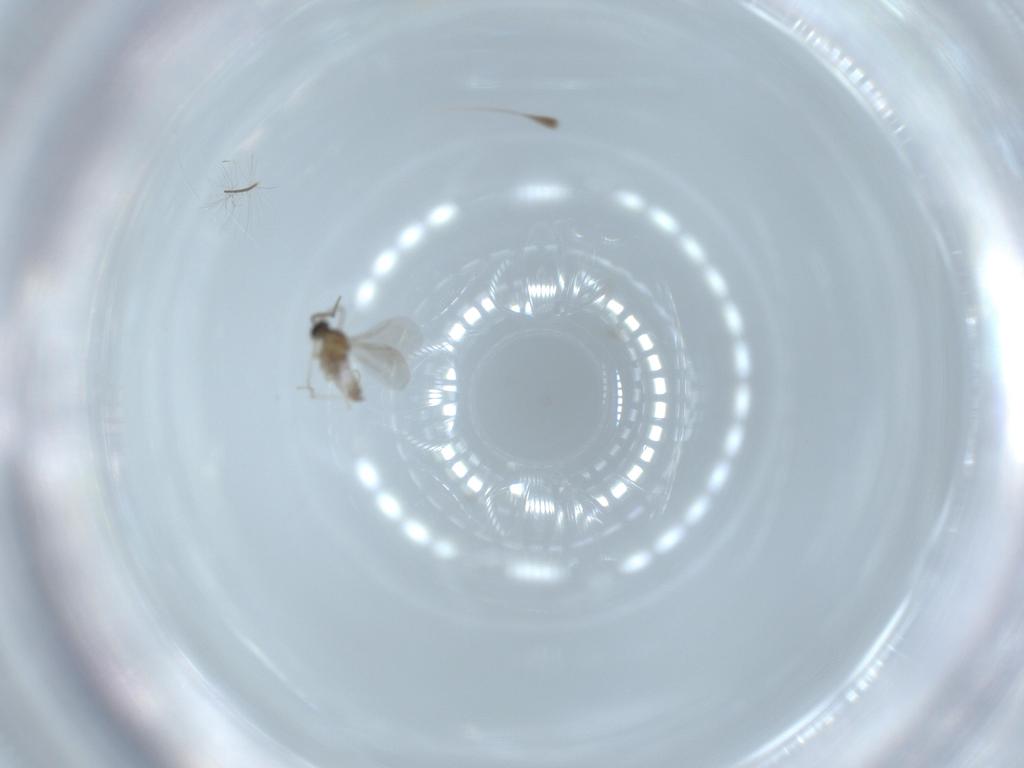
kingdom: Animalia
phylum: Arthropoda
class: Insecta
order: Diptera
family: Cecidomyiidae
